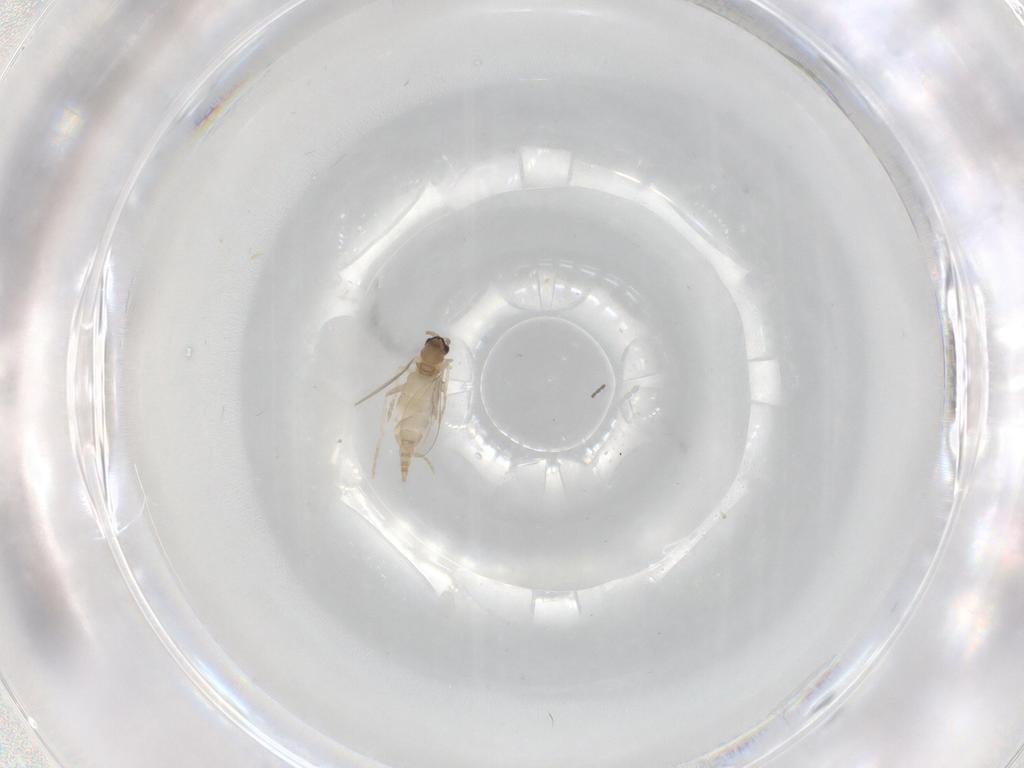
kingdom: Animalia
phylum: Arthropoda
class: Insecta
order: Diptera
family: Cecidomyiidae
